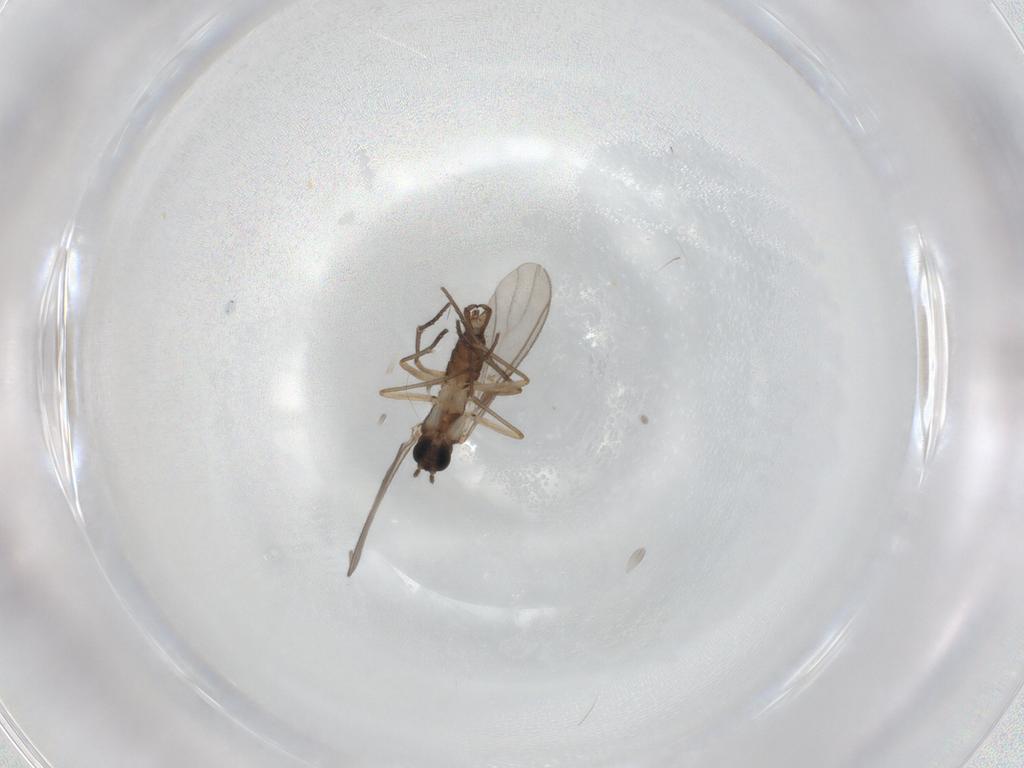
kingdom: Animalia
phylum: Arthropoda
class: Insecta
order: Diptera
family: Sciaridae
